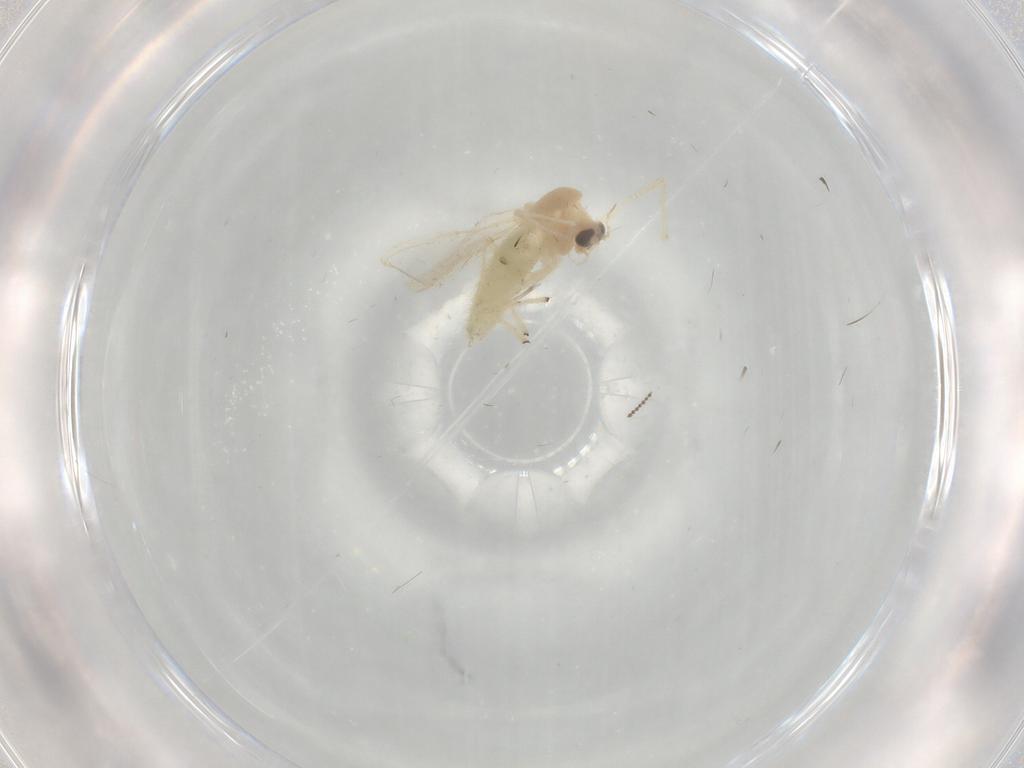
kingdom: Animalia
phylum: Arthropoda
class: Insecta
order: Diptera
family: Chironomidae
